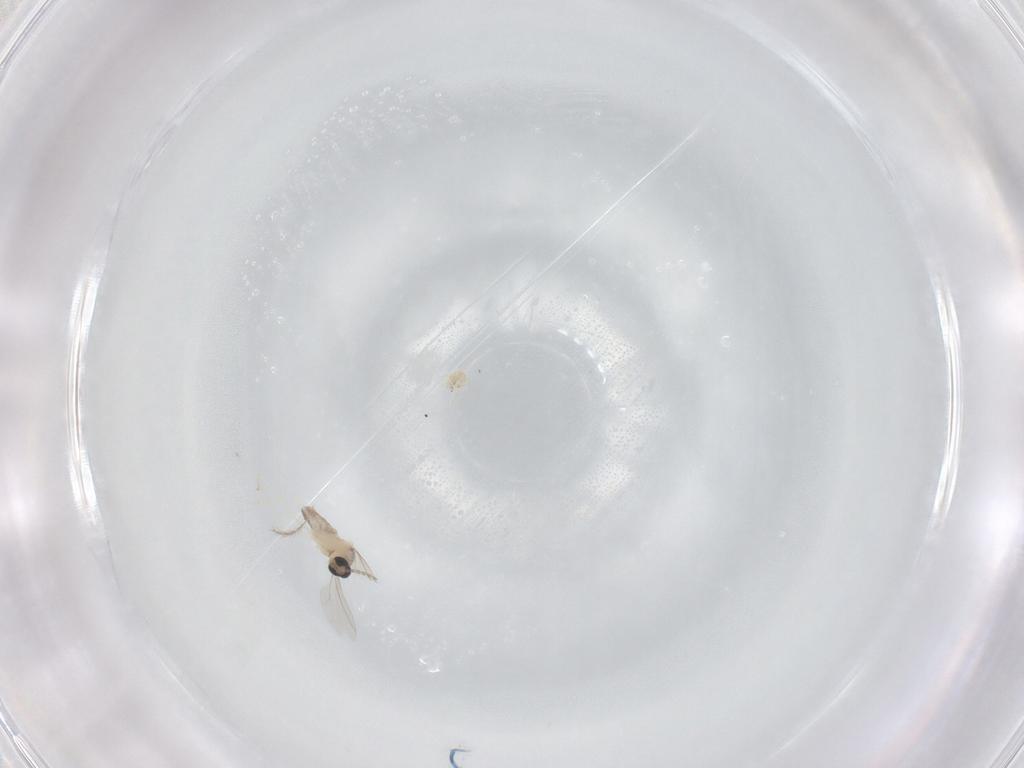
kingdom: Animalia
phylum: Arthropoda
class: Insecta
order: Diptera
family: Cecidomyiidae
